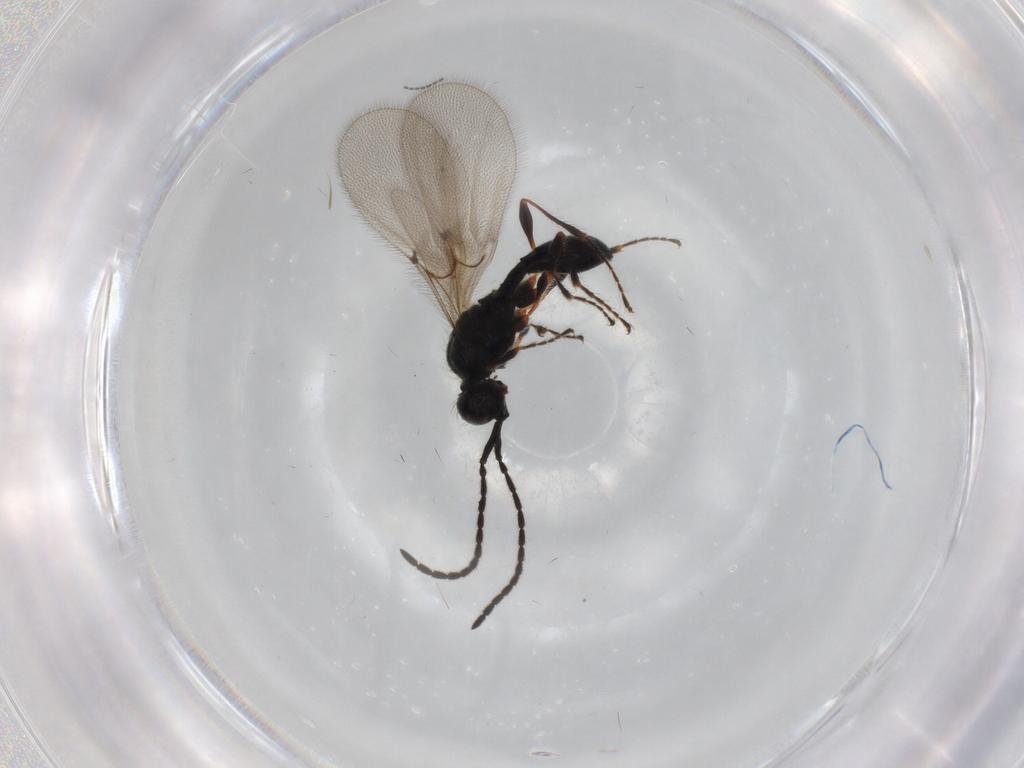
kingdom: Animalia
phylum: Arthropoda
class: Insecta
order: Hymenoptera
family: Diapriidae
